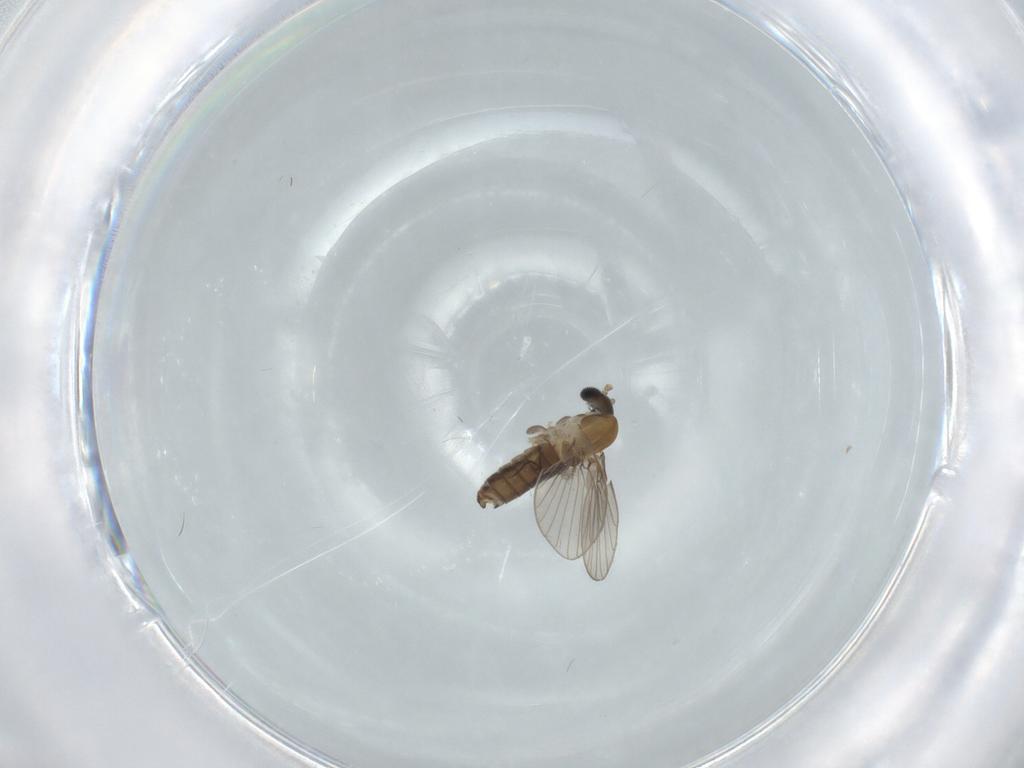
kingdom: Animalia
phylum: Arthropoda
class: Insecta
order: Diptera
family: Psychodidae
